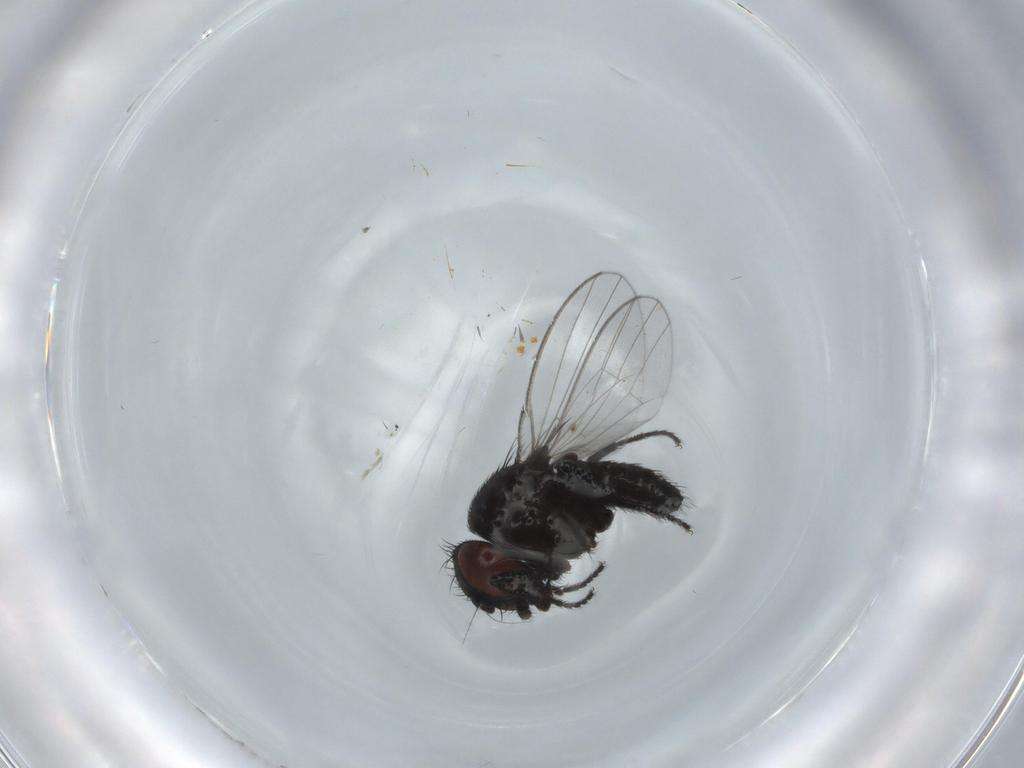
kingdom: Animalia
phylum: Arthropoda
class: Insecta
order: Diptera
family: Milichiidae
